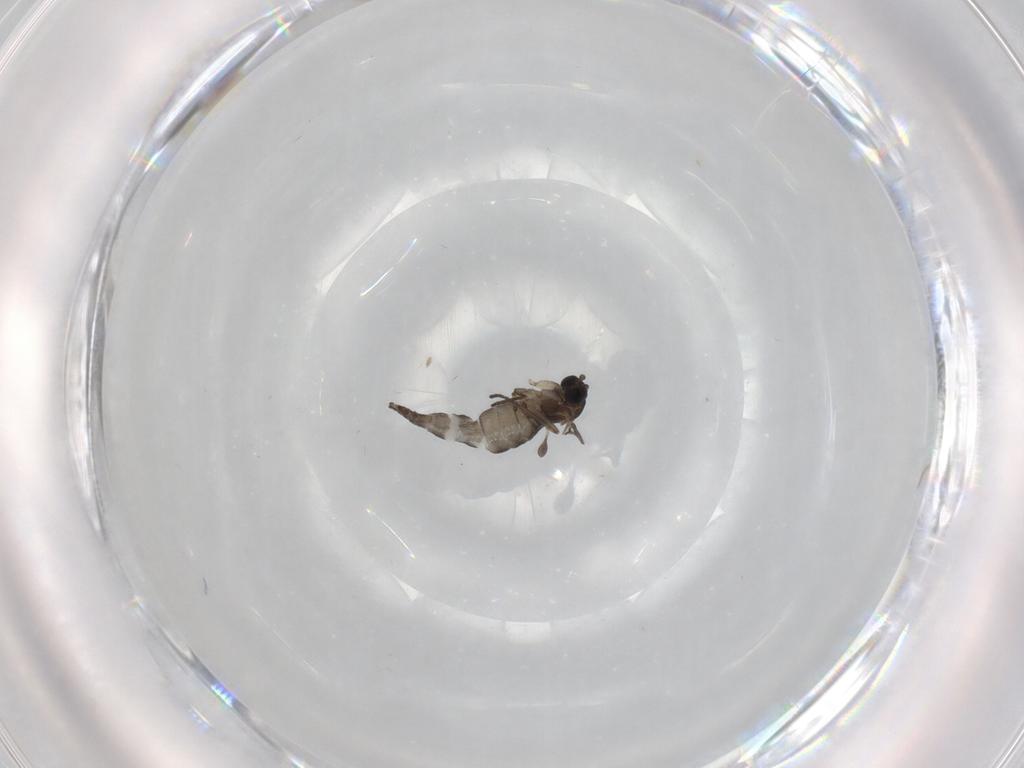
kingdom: Animalia
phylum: Arthropoda
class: Insecta
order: Diptera
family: Sciaridae
